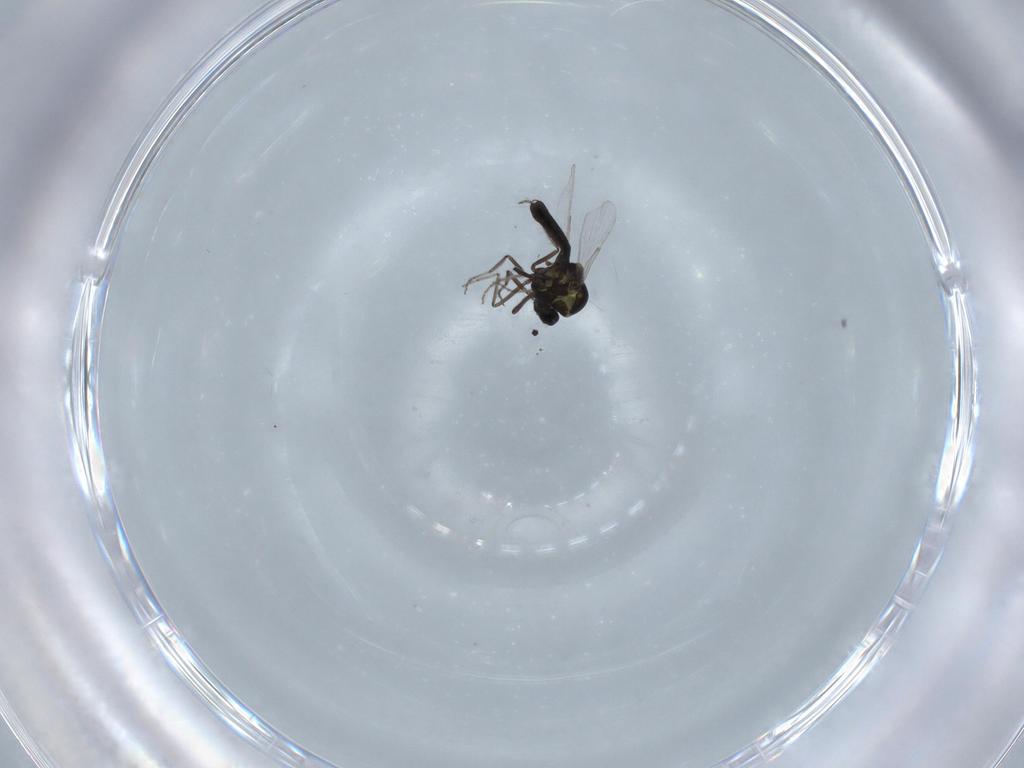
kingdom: Animalia
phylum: Arthropoda
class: Insecta
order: Diptera
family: Ceratopogonidae
